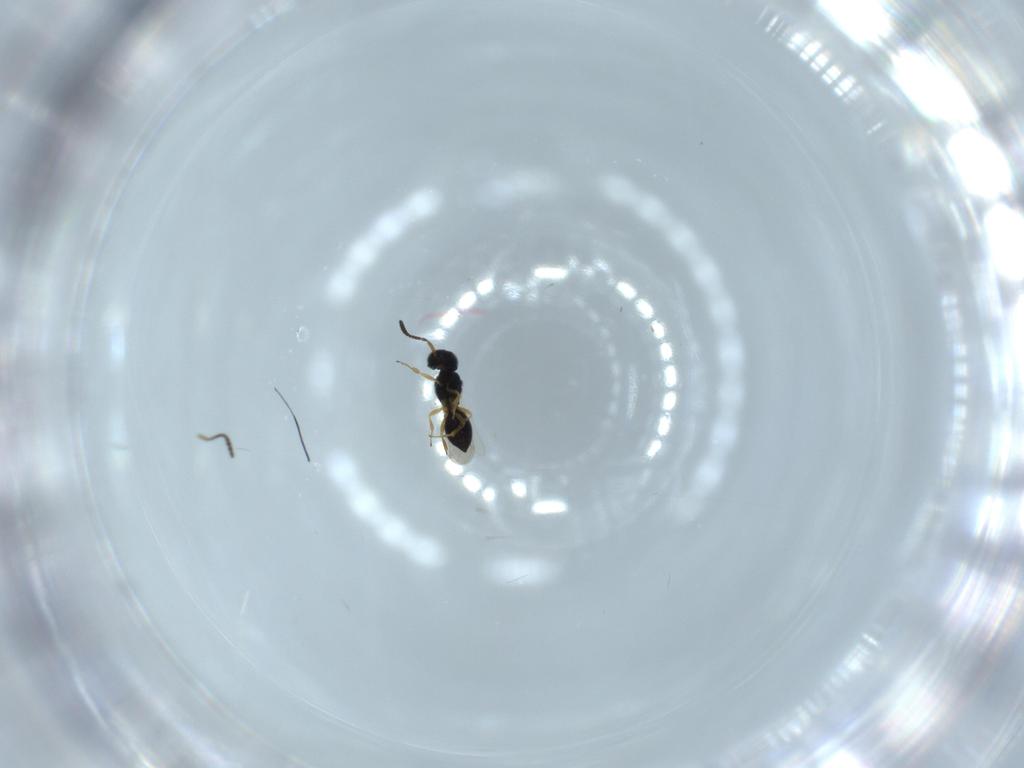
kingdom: Animalia
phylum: Arthropoda
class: Insecta
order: Hymenoptera
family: Scelionidae
